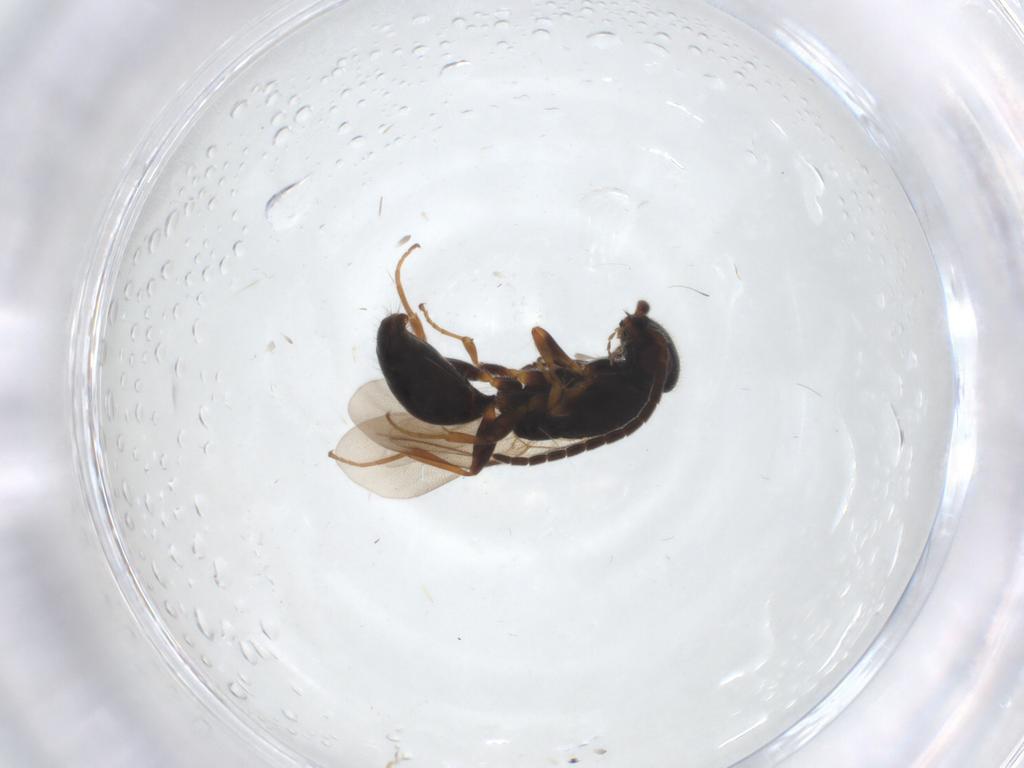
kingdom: Animalia
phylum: Arthropoda
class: Insecta
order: Hymenoptera
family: Bethylidae
